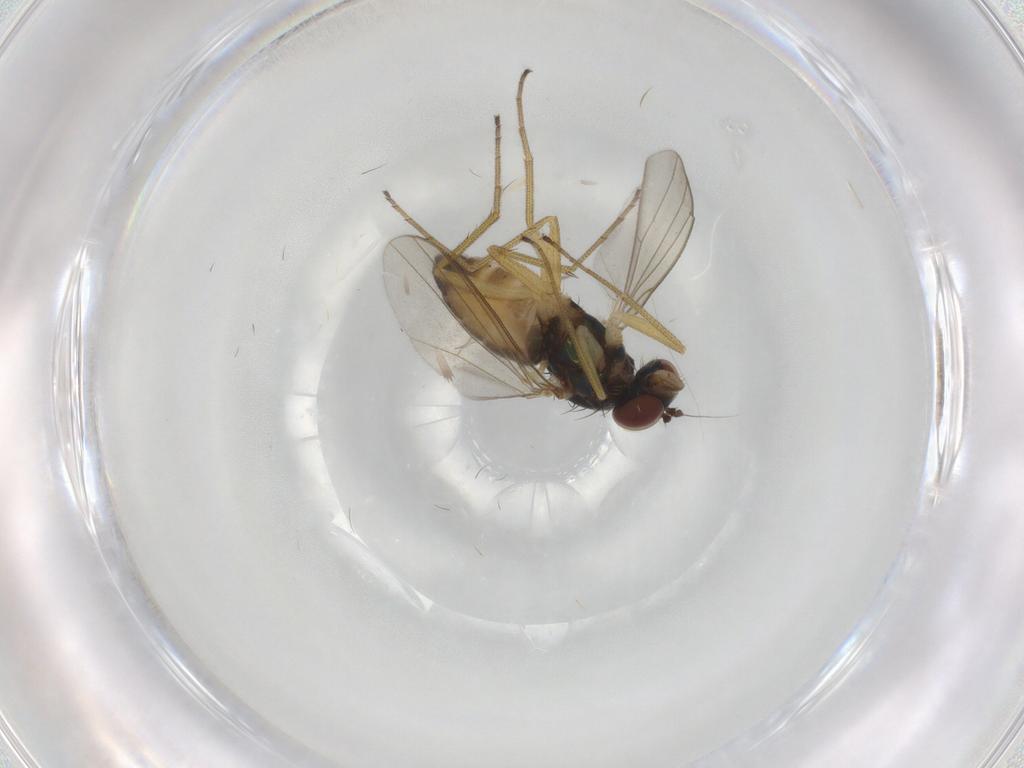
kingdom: Animalia
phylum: Arthropoda
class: Insecta
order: Diptera
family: Dolichopodidae
